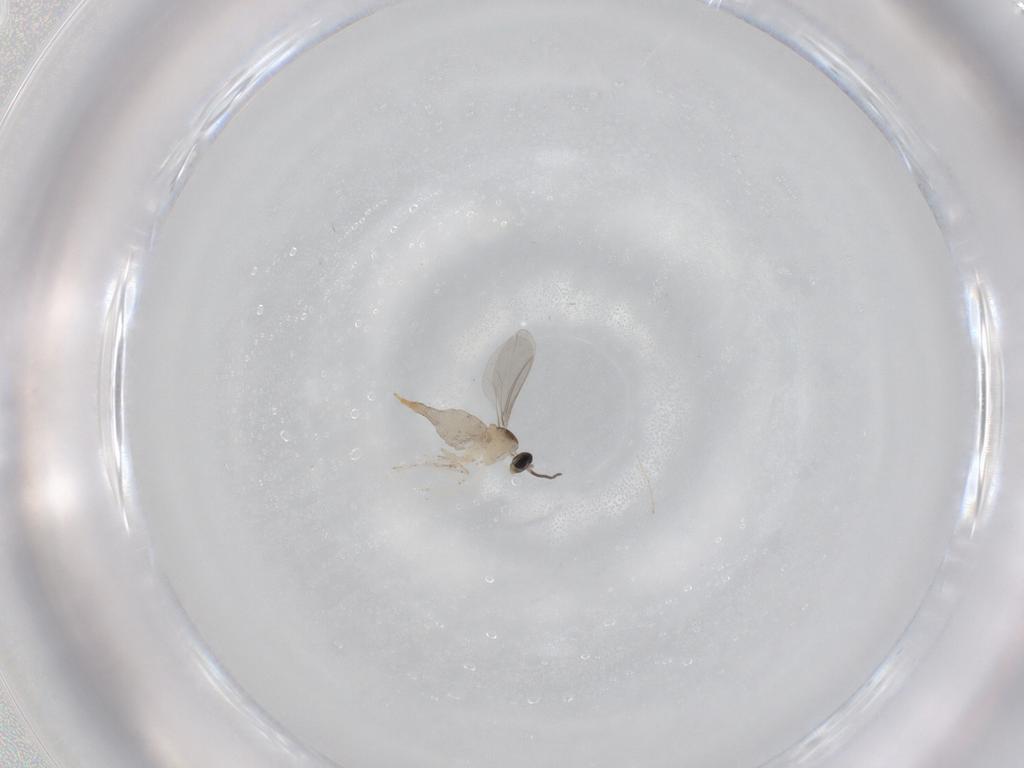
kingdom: Animalia
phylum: Arthropoda
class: Insecta
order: Diptera
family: Cecidomyiidae
